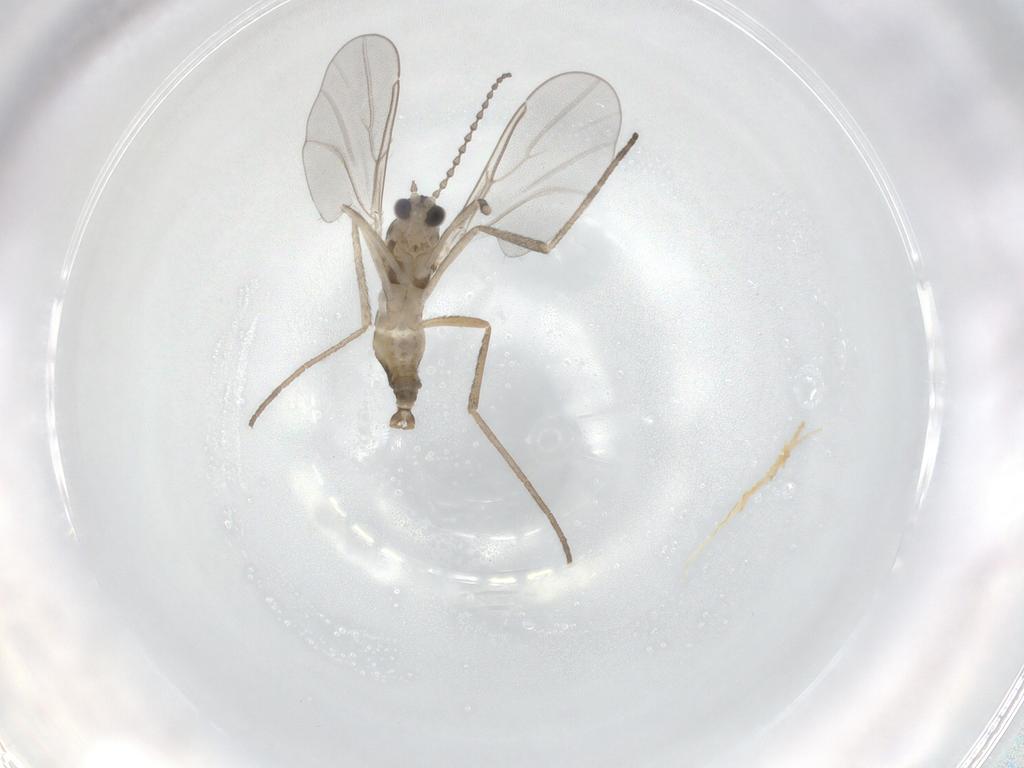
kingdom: Animalia
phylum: Arthropoda
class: Insecta
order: Diptera
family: Cecidomyiidae
